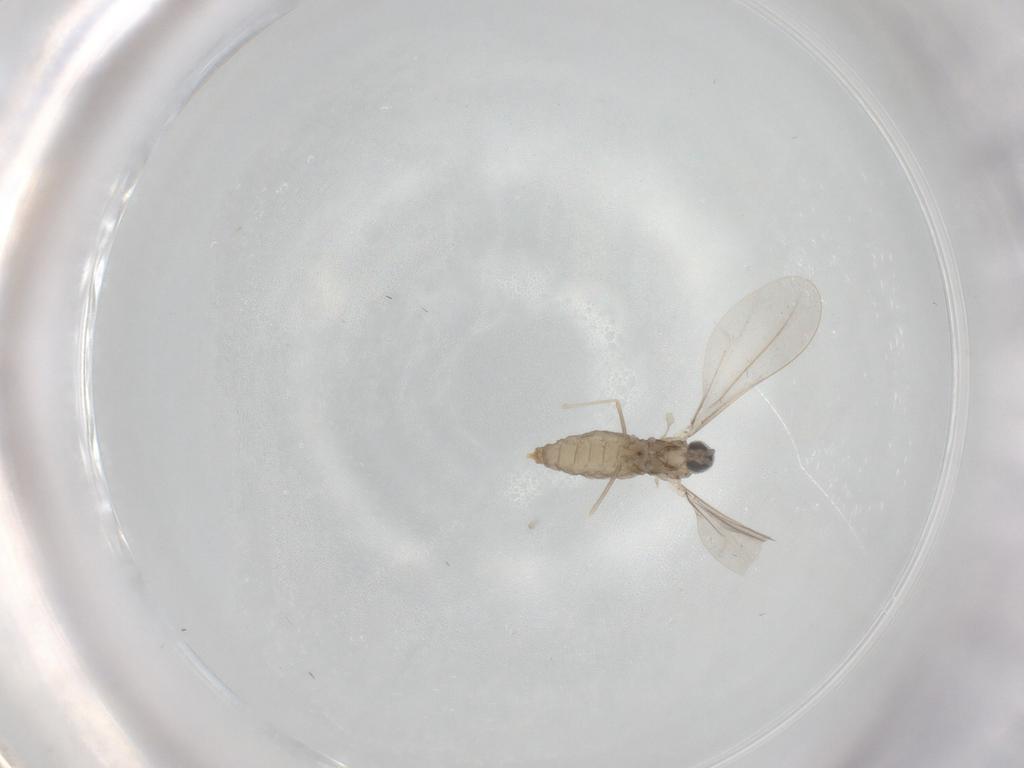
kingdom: Animalia
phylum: Arthropoda
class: Insecta
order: Diptera
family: Cecidomyiidae
